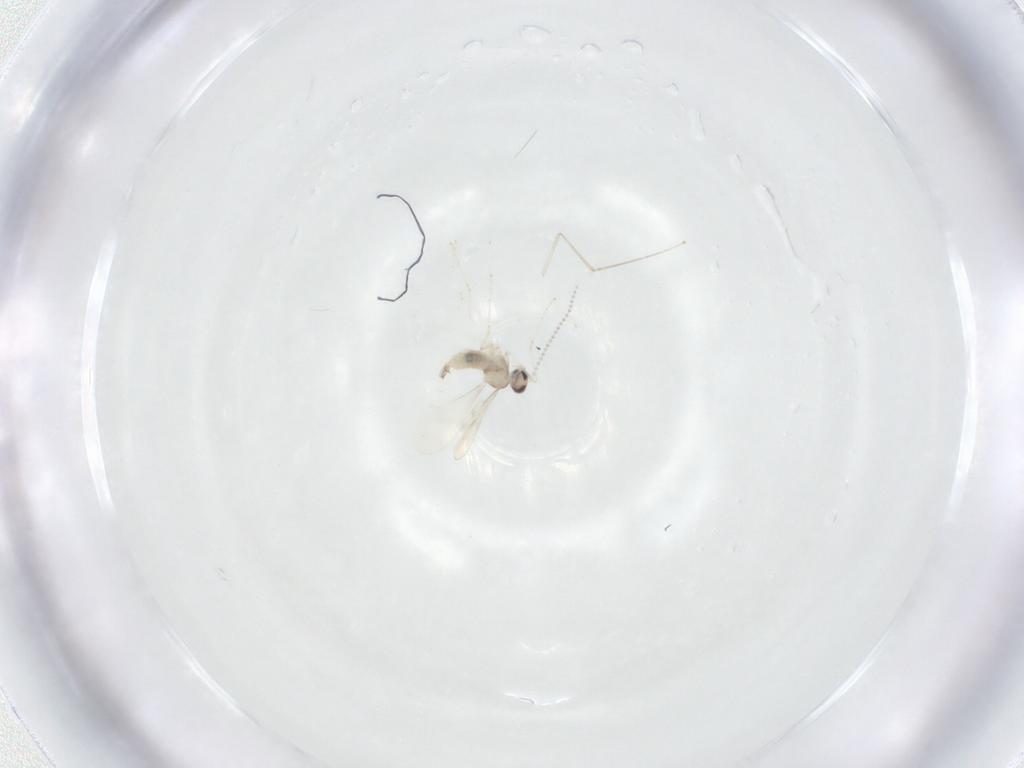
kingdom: Animalia
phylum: Arthropoda
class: Insecta
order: Diptera
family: Cecidomyiidae
